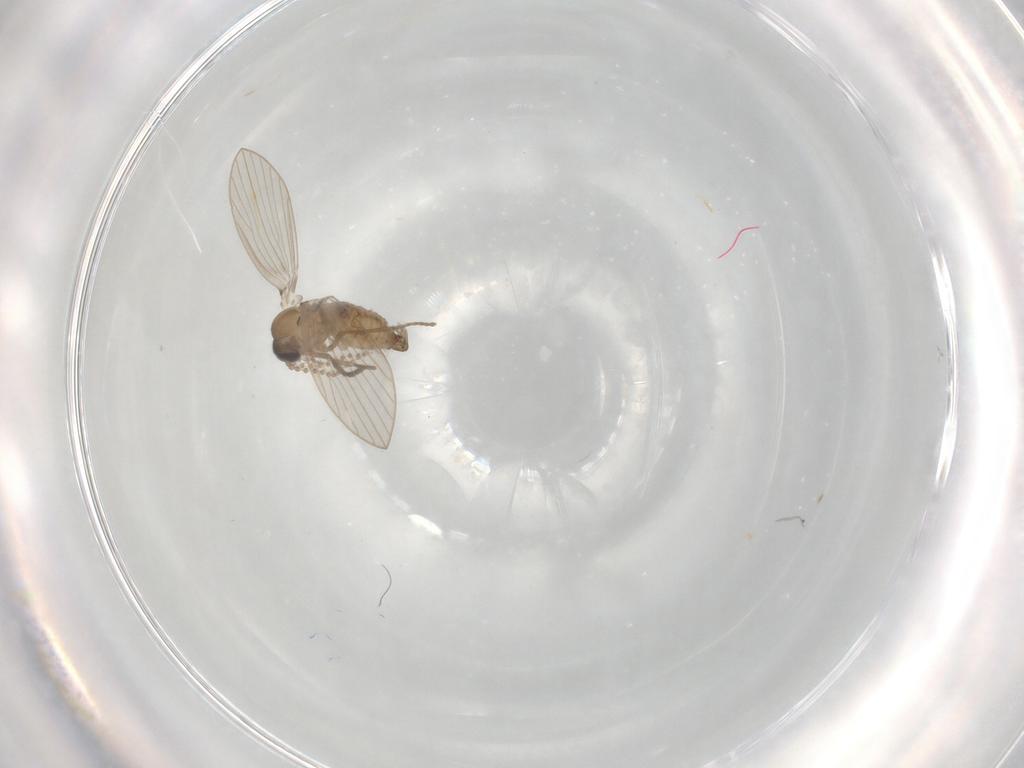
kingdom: Animalia
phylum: Arthropoda
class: Insecta
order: Diptera
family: Psychodidae
